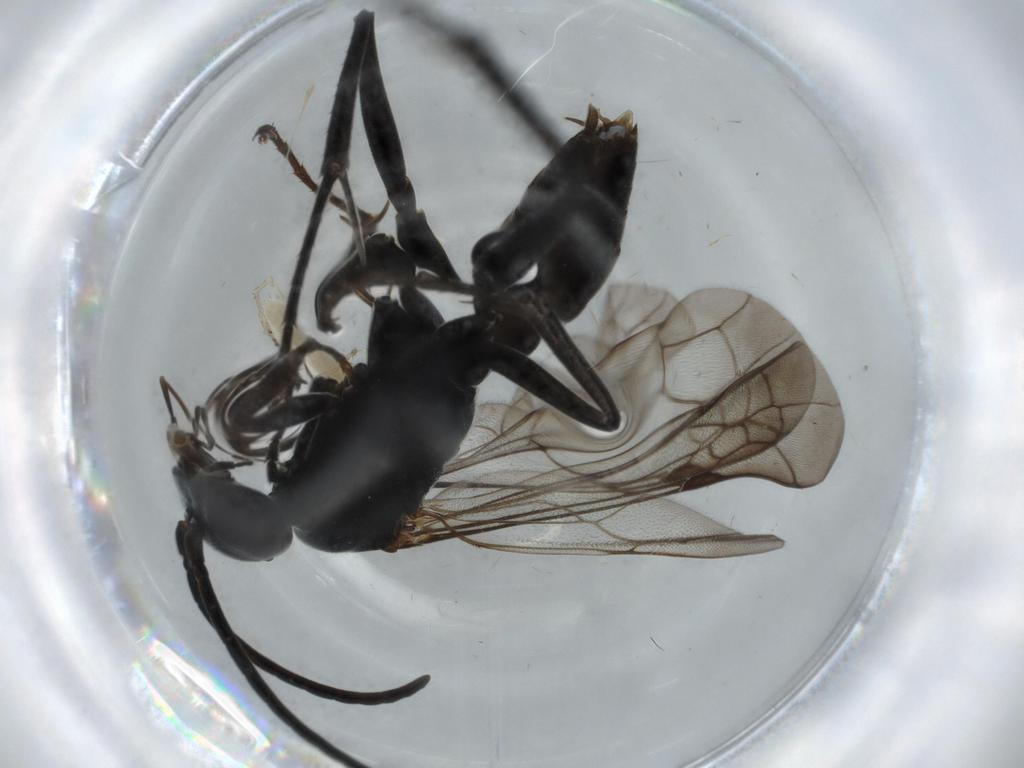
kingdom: Animalia
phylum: Arthropoda
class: Insecta
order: Hymenoptera
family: Pompilidae
